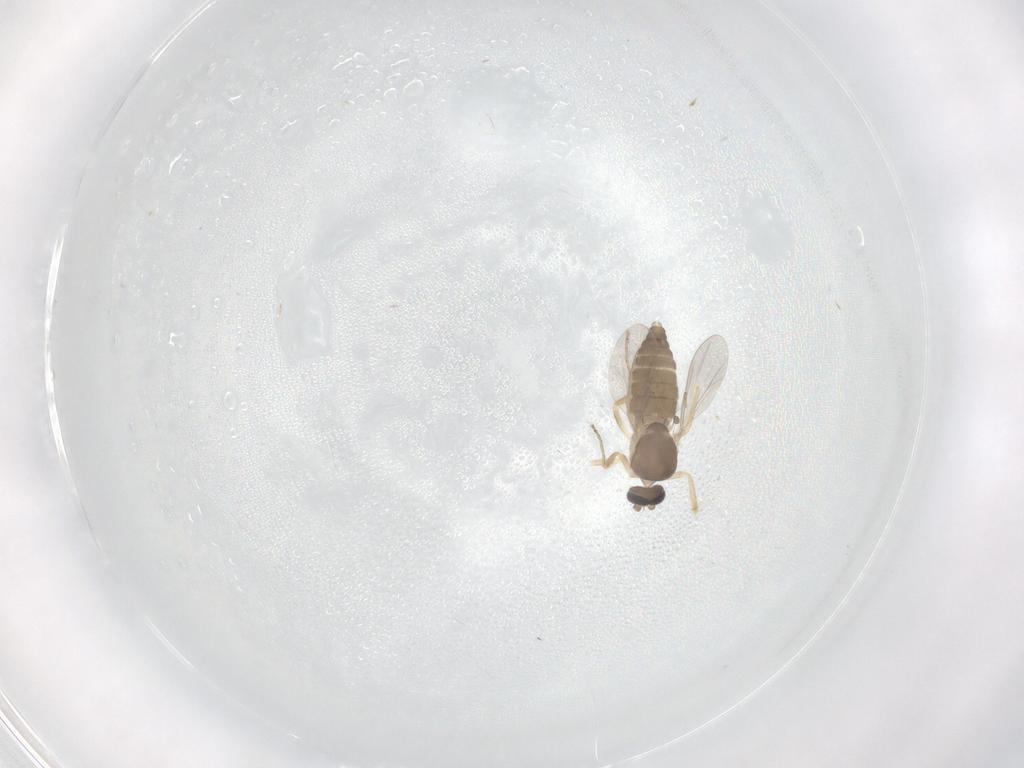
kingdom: Animalia
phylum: Arthropoda
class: Insecta
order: Diptera
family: Ceratopogonidae
